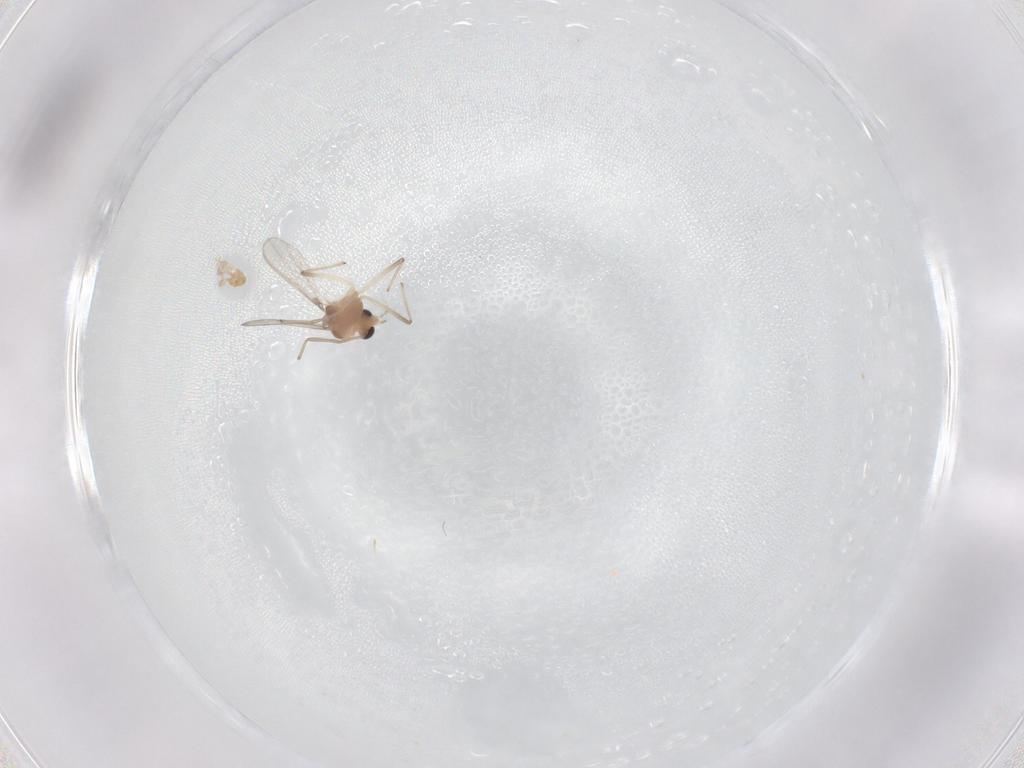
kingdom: Animalia
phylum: Arthropoda
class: Insecta
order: Diptera
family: Chironomidae
